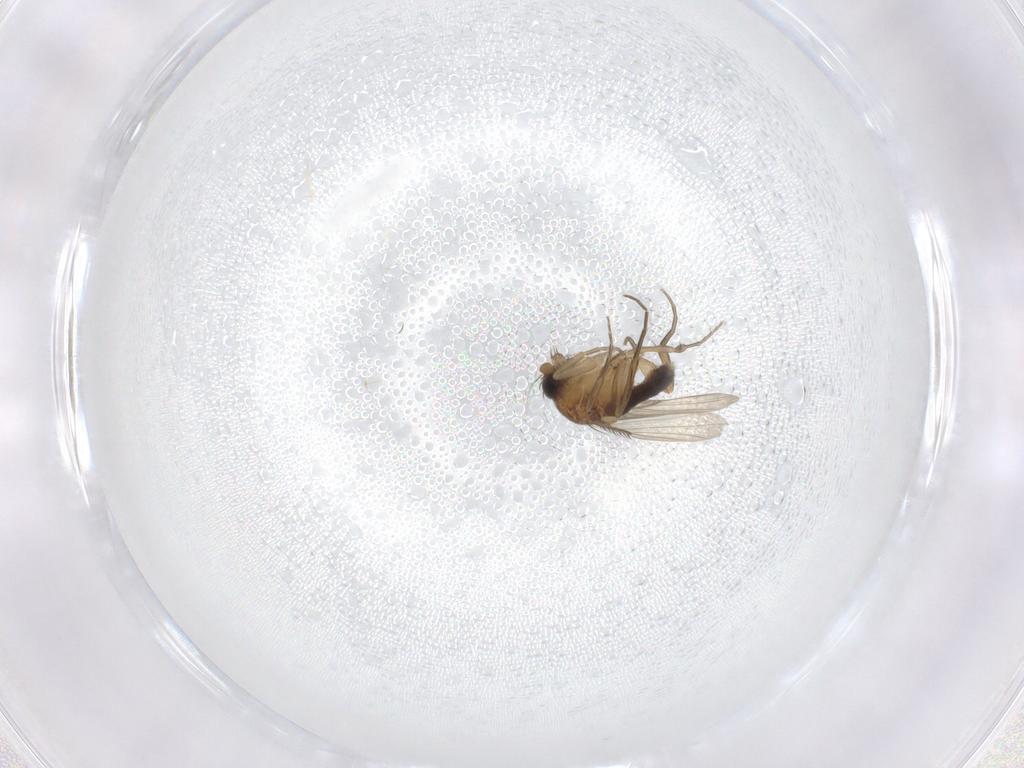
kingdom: Animalia
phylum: Arthropoda
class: Insecta
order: Diptera
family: Phoridae
